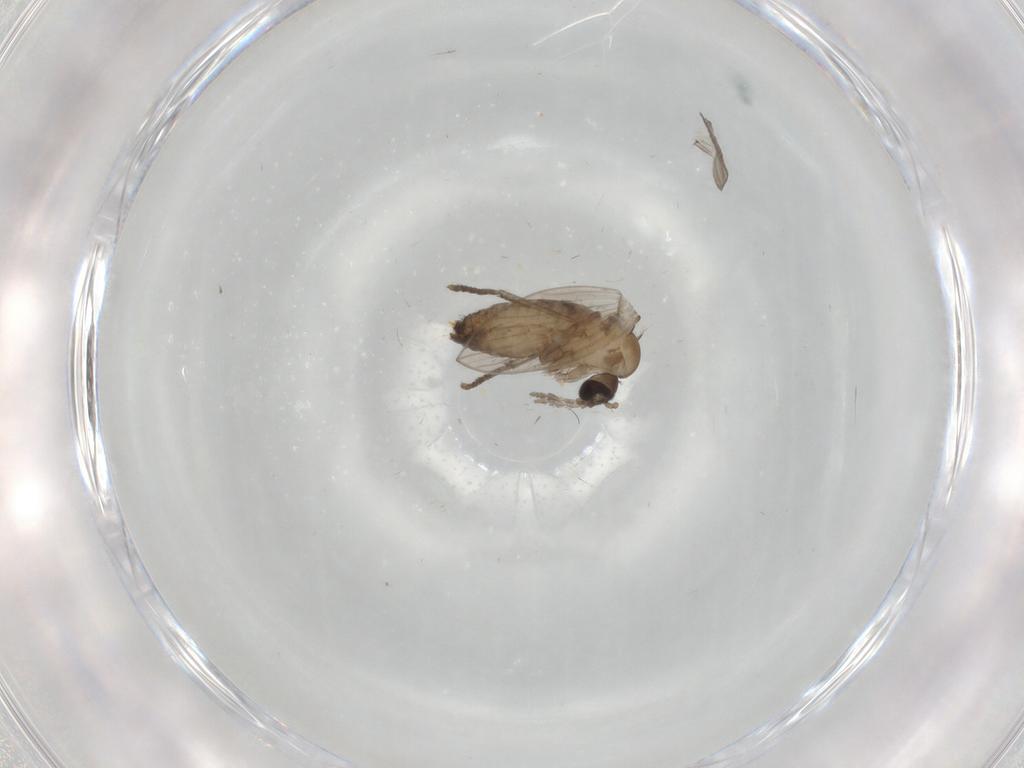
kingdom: Animalia
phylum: Arthropoda
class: Insecta
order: Diptera
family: Psychodidae
